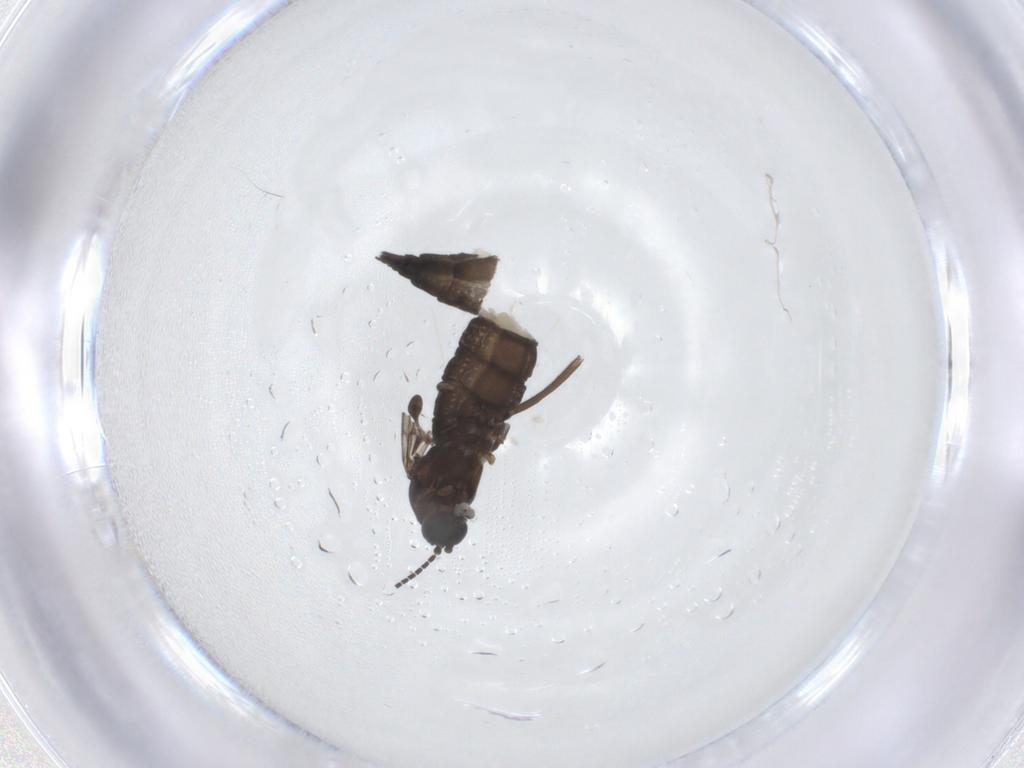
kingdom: Animalia
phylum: Arthropoda
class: Insecta
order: Diptera
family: Sciaridae
